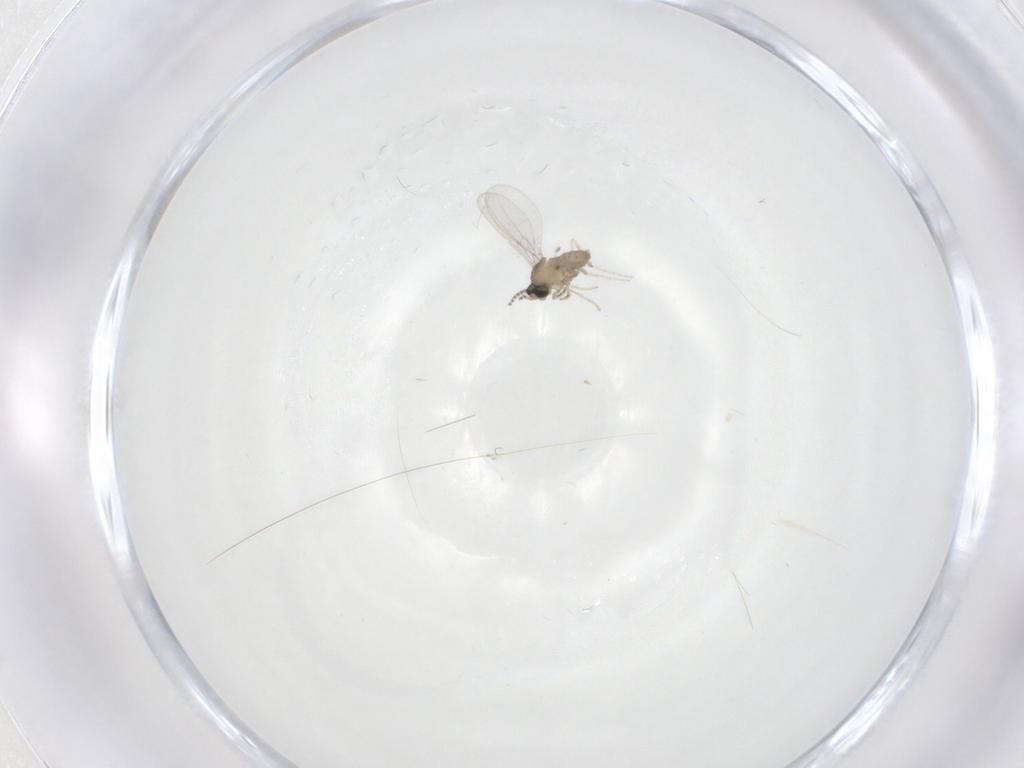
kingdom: Animalia
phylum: Arthropoda
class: Insecta
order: Diptera
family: Cecidomyiidae
